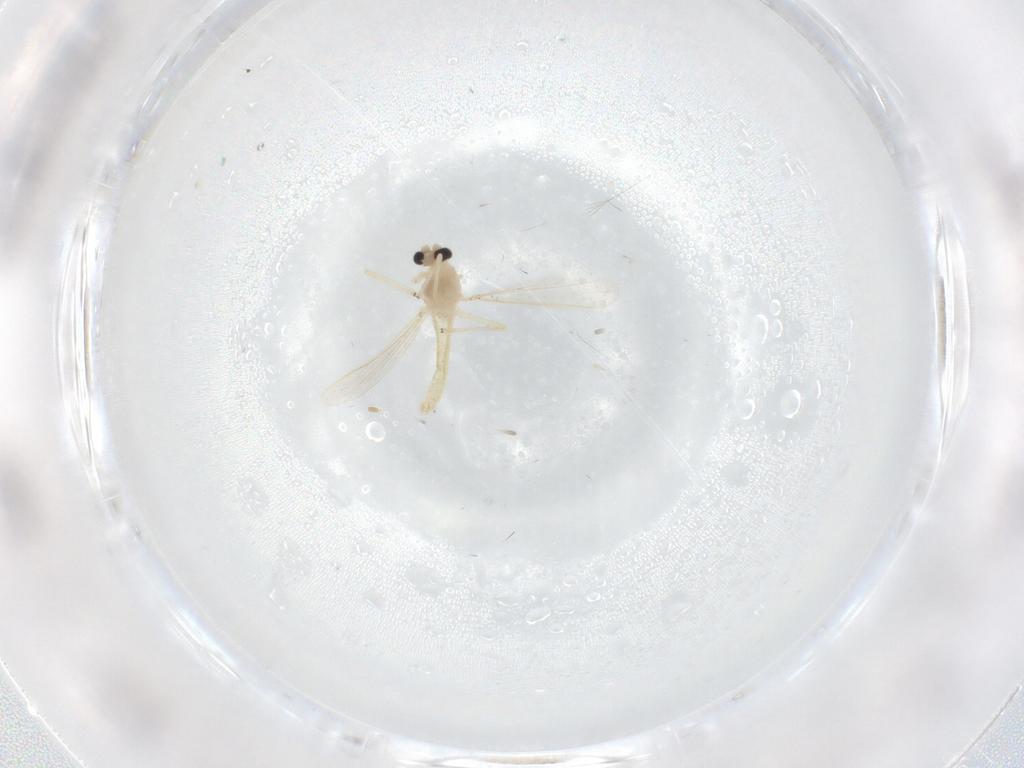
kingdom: Animalia
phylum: Arthropoda
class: Insecta
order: Diptera
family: Chironomidae
